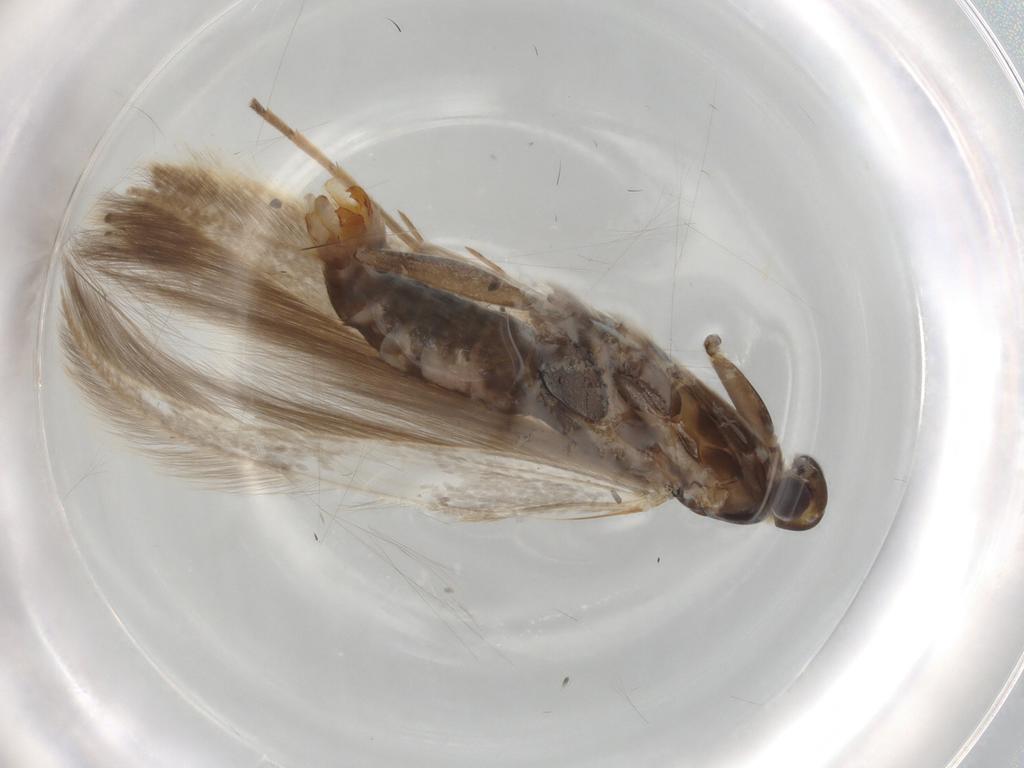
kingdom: Animalia
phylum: Arthropoda
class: Insecta
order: Lepidoptera
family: Coleophoridae
